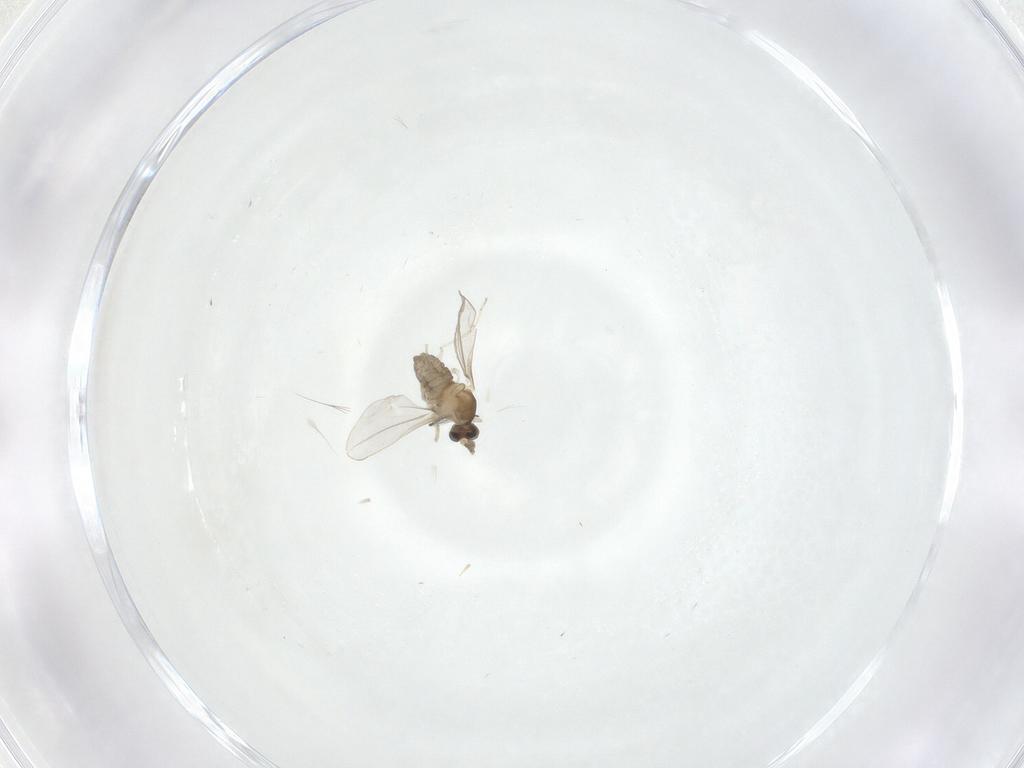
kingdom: Animalia
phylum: Arthropoda
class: Insecta
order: Diptera
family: Cecidomyiidae
